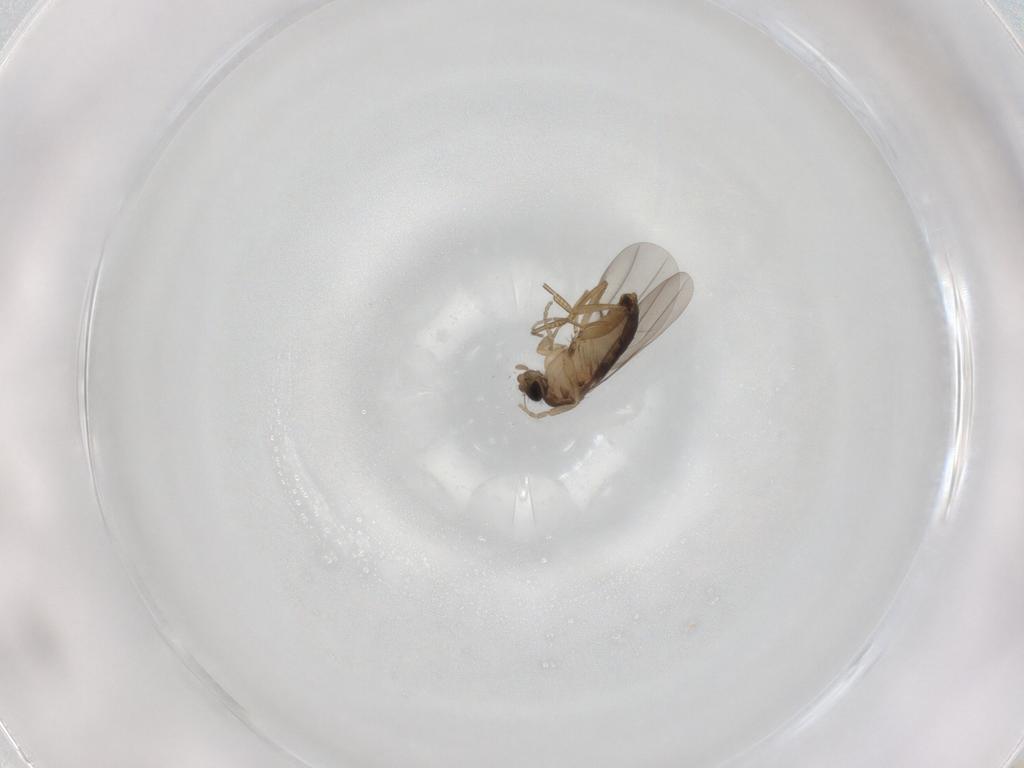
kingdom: Animalia
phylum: Arthropoda
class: Insecta
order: Diptera
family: Phoridae
